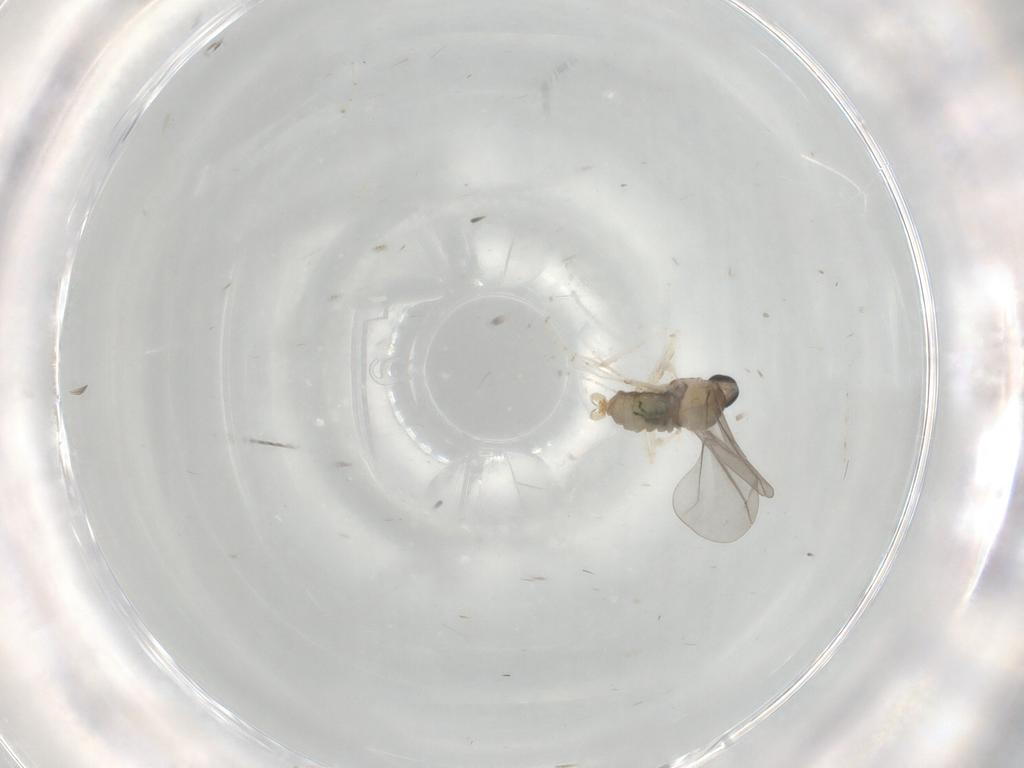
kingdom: Animalia
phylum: Arthropoda
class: Insecta
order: Diptera
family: Cecidomyiidae
